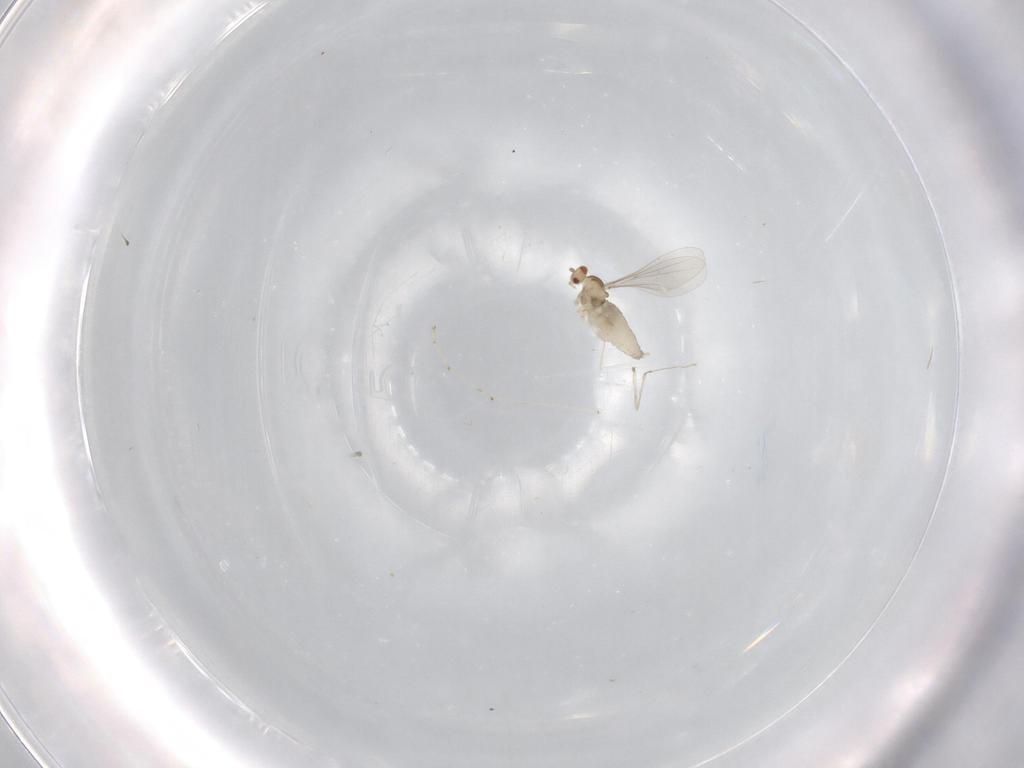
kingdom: Animalia
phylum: Arthropoda
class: Insecta
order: Diptera
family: Cecidomyiidae
